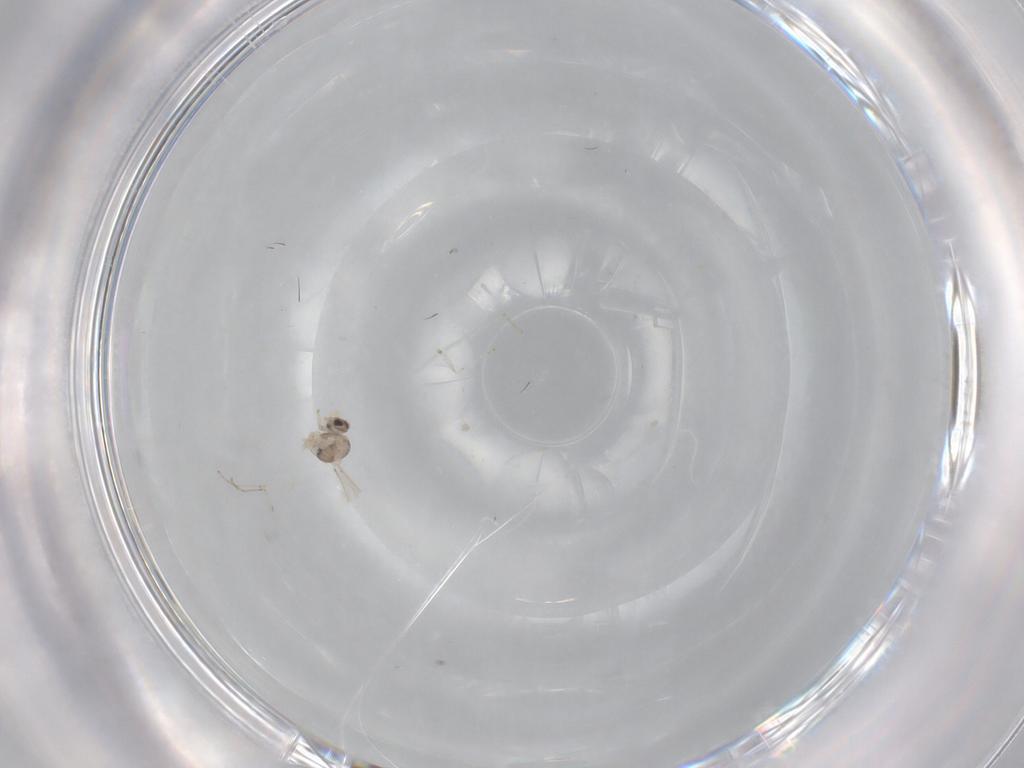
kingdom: Animalia
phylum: Arthropoda
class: Insecta
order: Diptera
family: Cecidomyiidae
